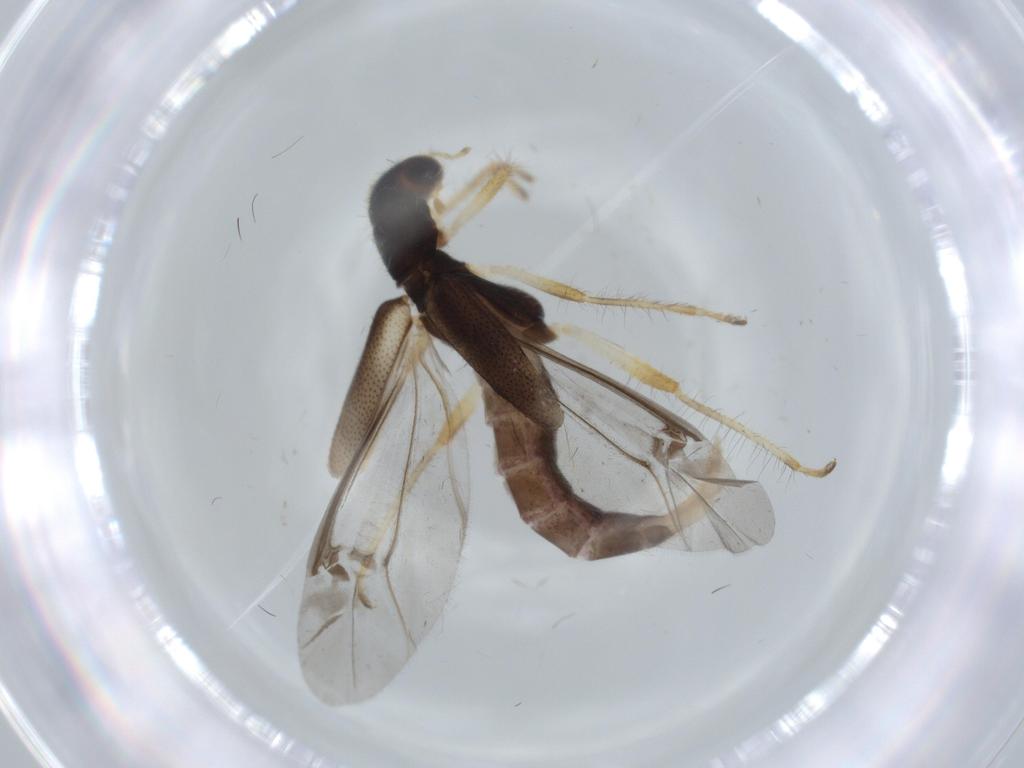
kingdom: Animalia
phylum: Arthropoda
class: Insecta
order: Coleoptera
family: Cleridae
